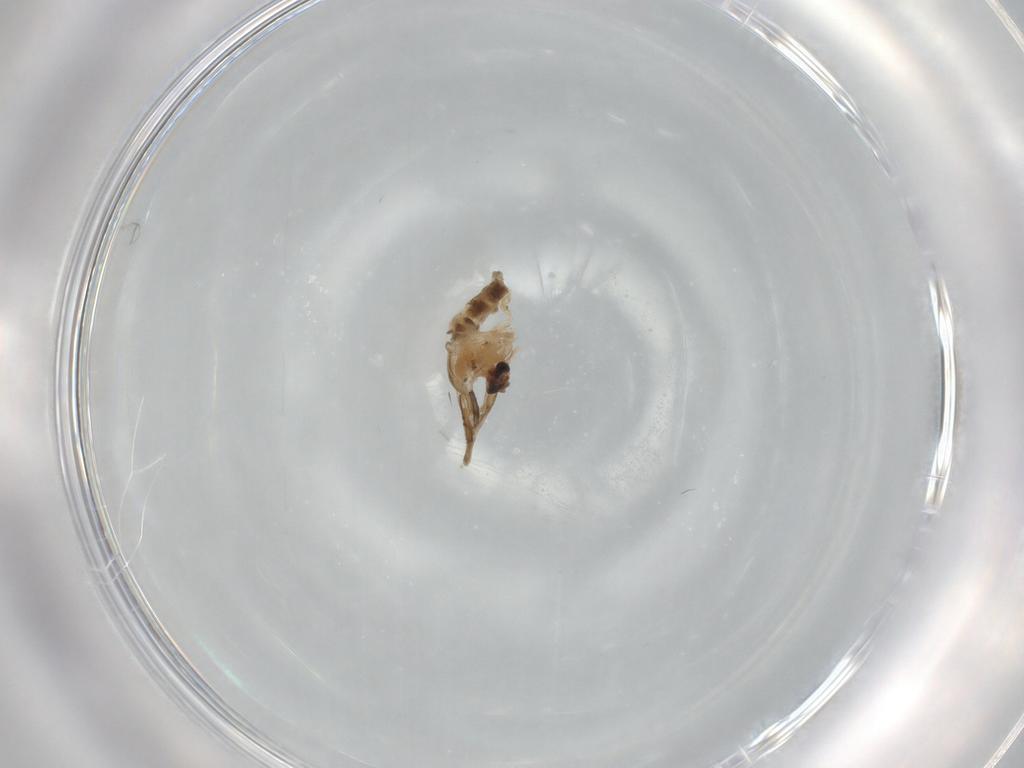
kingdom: Animalia
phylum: Arthropoda
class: Insecta
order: Diptera
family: Chironomidae
